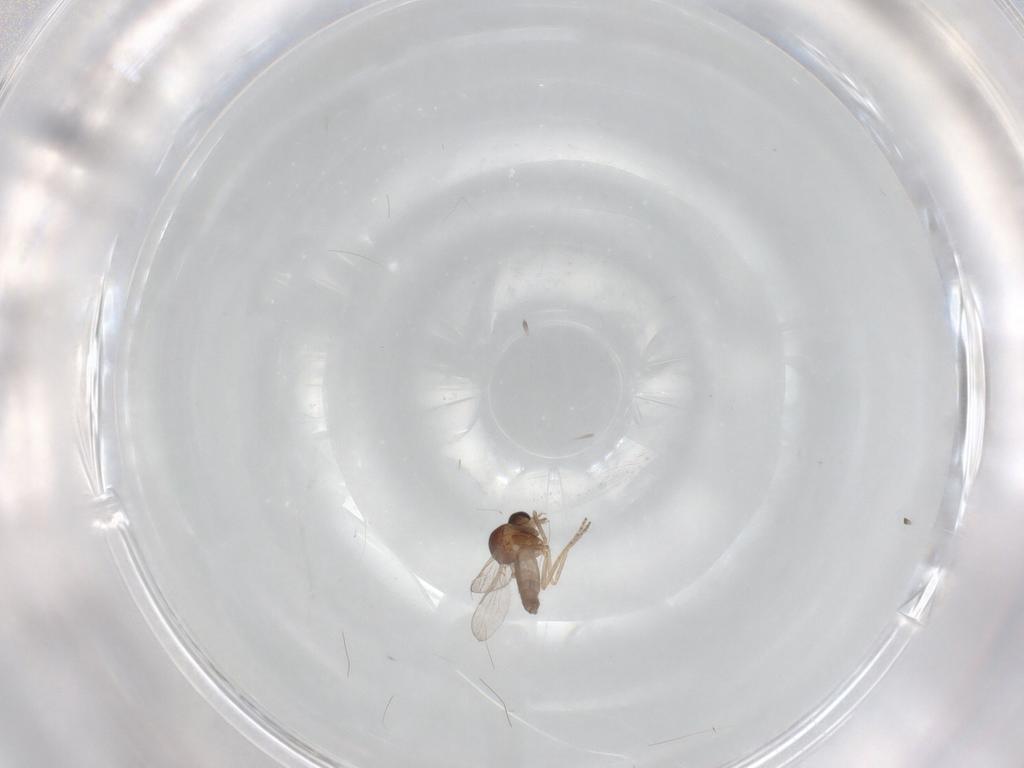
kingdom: Animalia
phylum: Arthropoda
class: Insecta
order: Diptera
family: Ceratopogonidae
